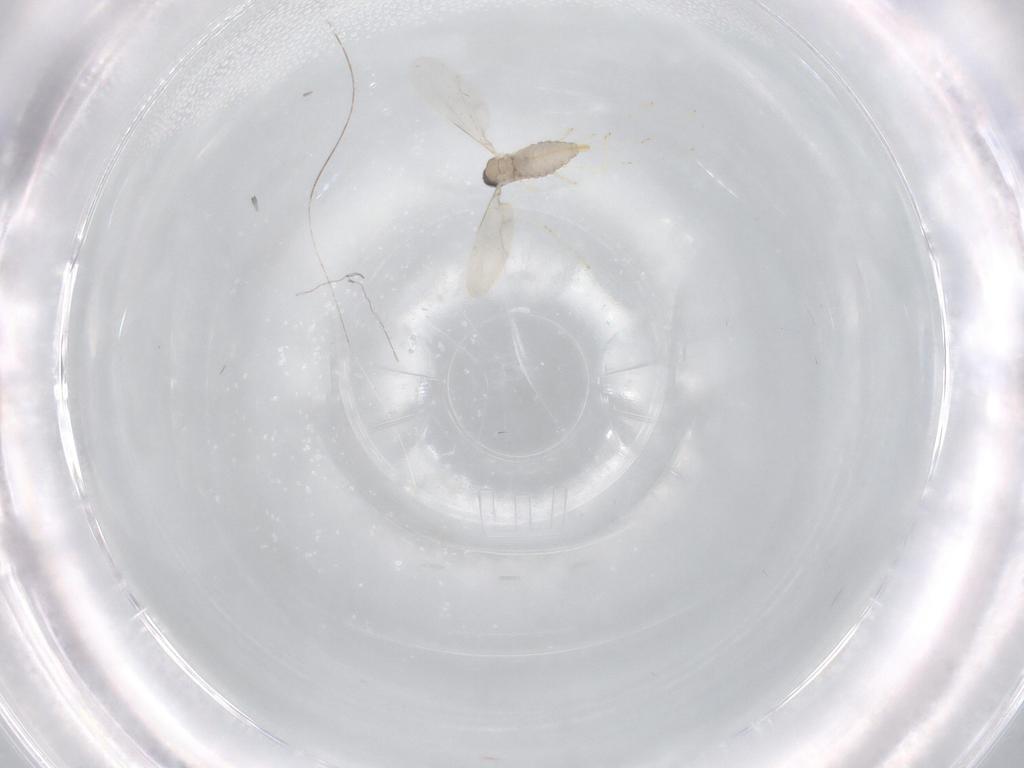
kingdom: Animalia
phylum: Arthropoda
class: Insecta
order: Diptera
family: Cecidomyiidae
